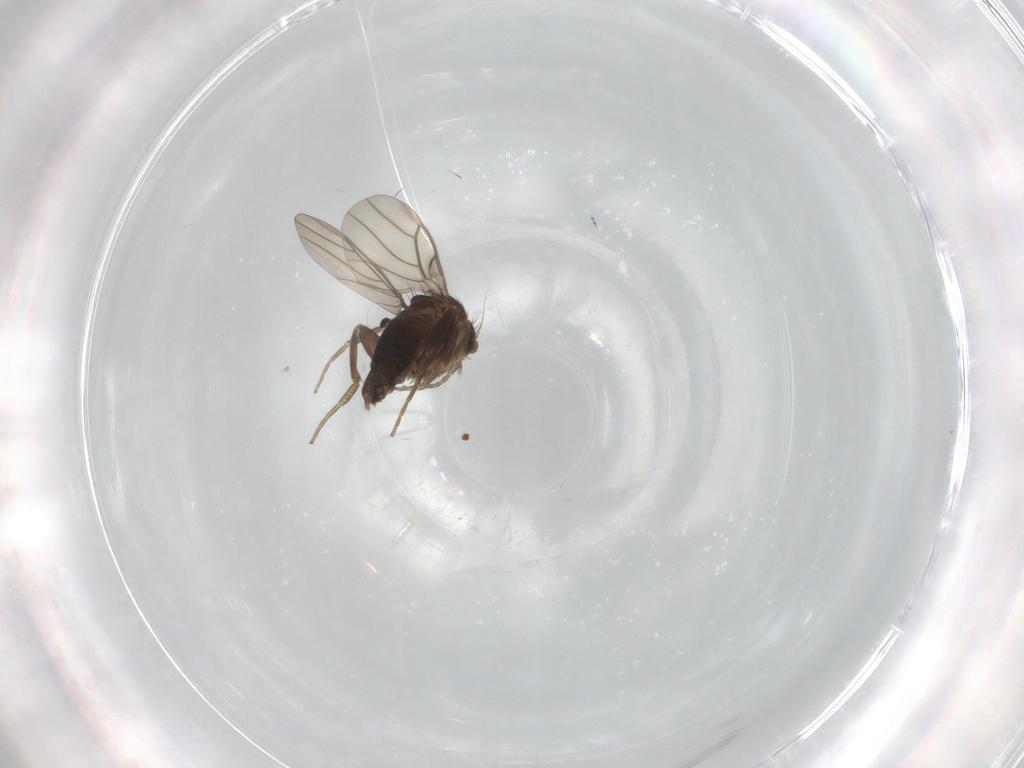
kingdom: Animalia
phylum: Arthropoda
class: Insecta
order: Diptera
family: Phoridae
